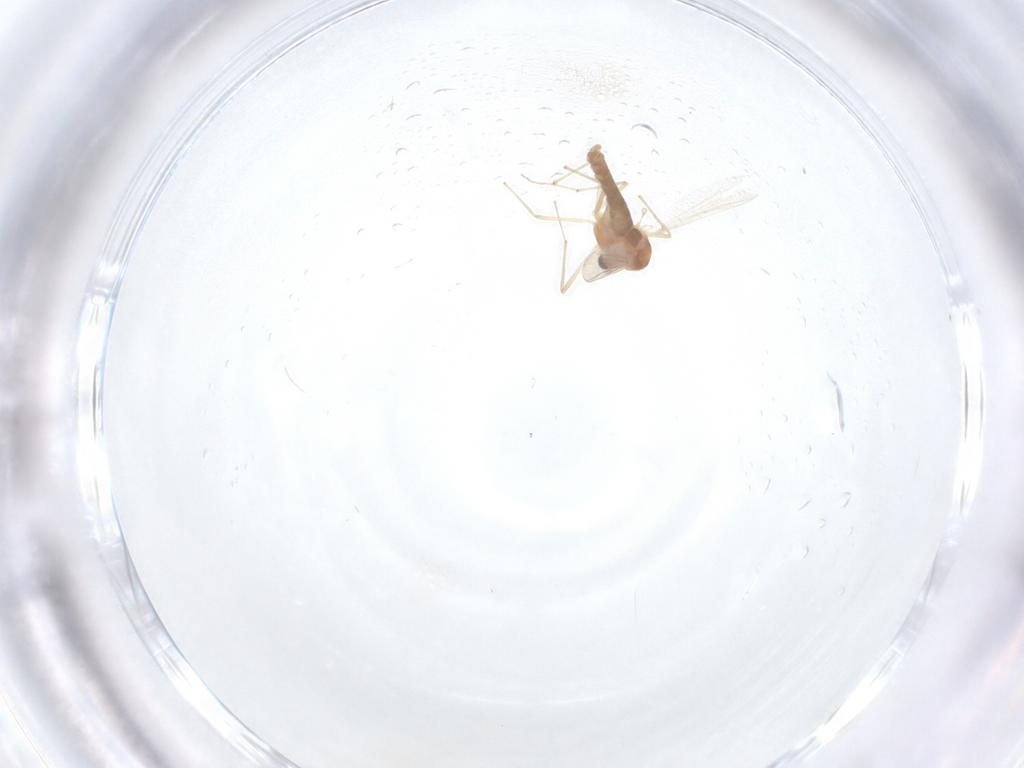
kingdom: Animalia
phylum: Arthropoda
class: Insecta
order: Diptera
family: Chironomidae
